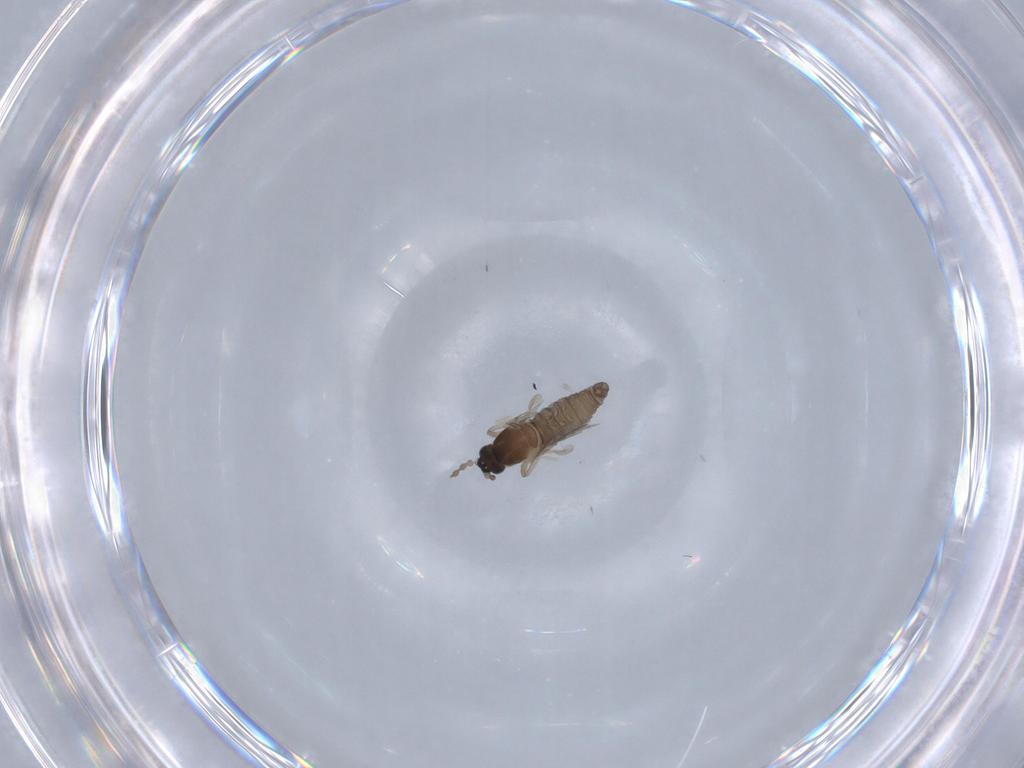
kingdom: Animalia
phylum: Arthropoda
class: Insecta
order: Diptera
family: Cecidomyiidae
